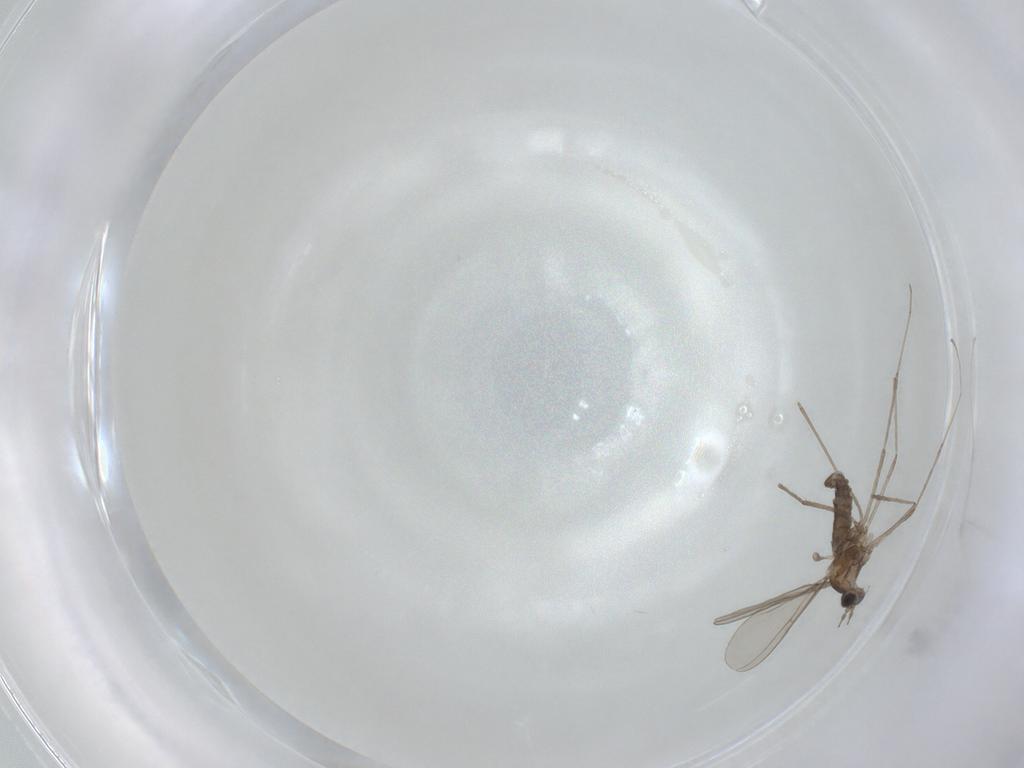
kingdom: Animalia
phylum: Arthropoda
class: Insecta
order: Diptera
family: Cecidomyiidae
